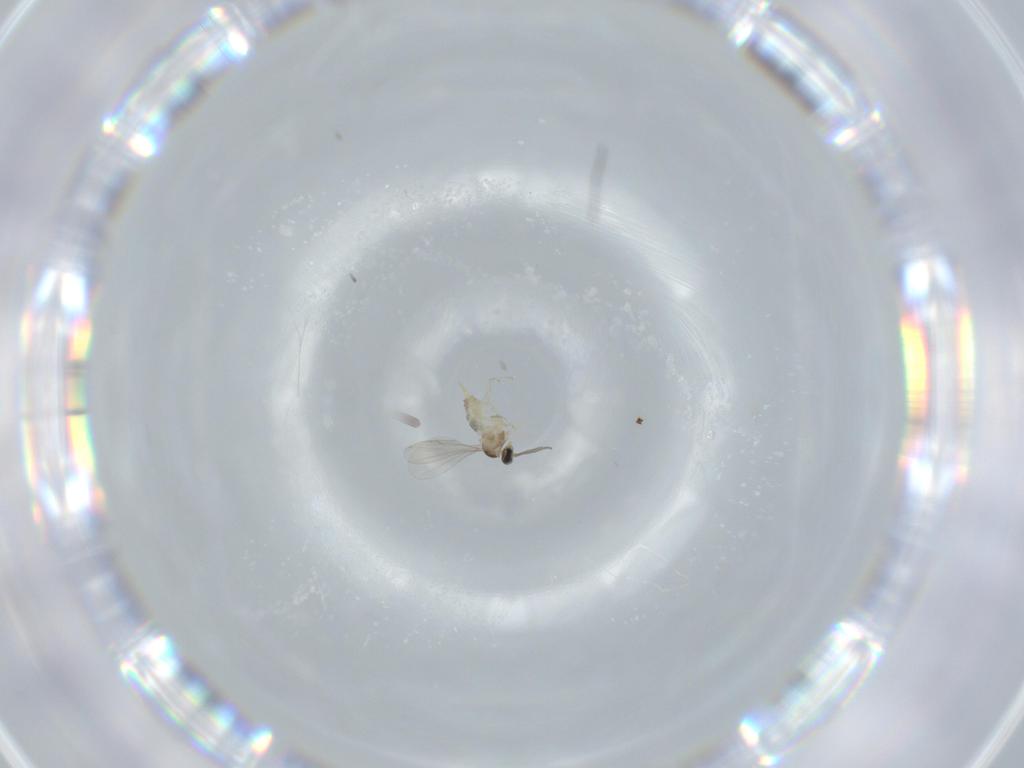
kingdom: Animalia
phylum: Arthropoda
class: Insecta
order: Diptera
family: Cecidomyiidae
